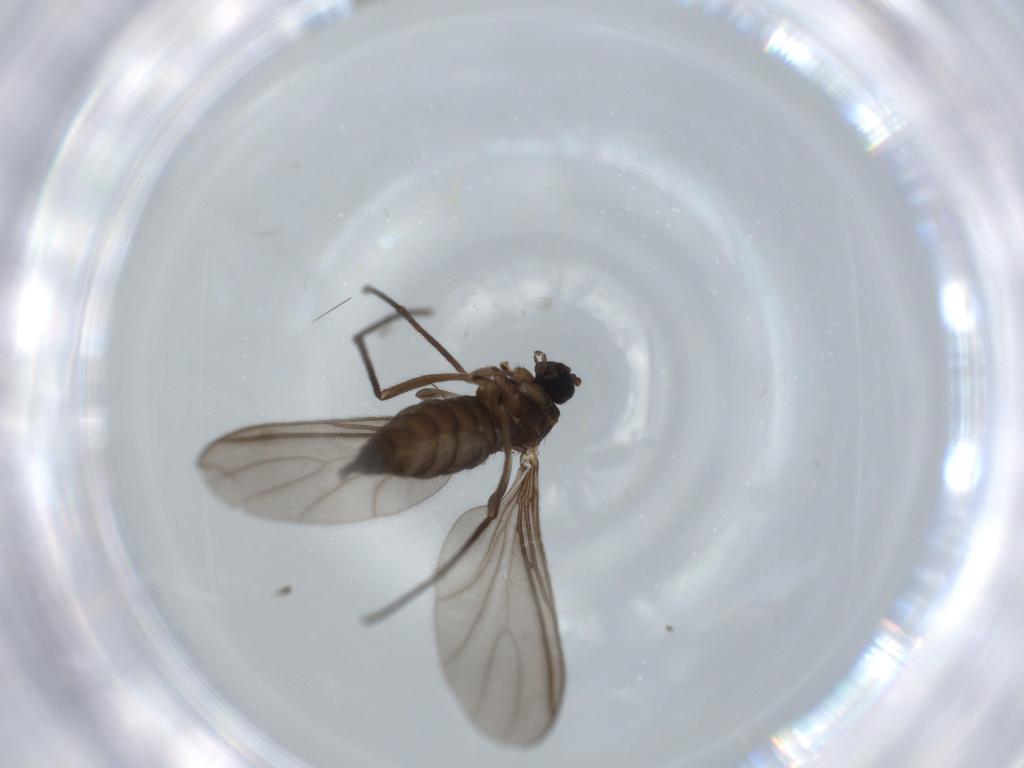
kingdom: Animalia
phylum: Arthropoda
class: Insecta
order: Diptera
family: Sciaridae
